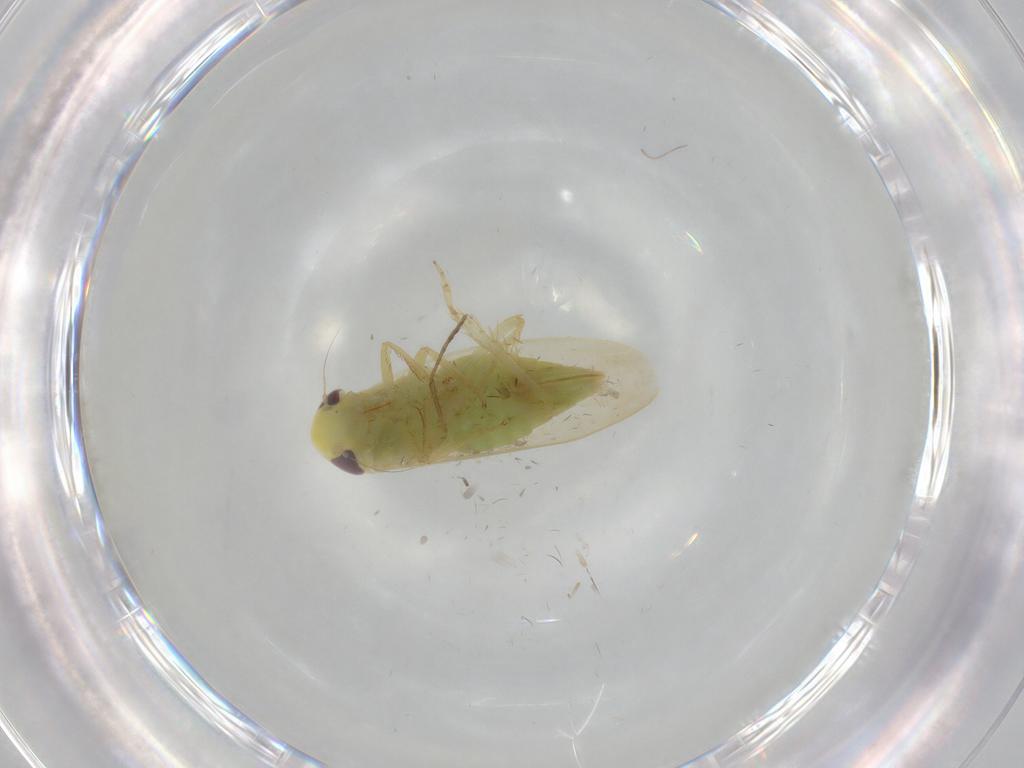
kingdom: Animalia
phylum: Arthropoda
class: Insecta
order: Hemiptera
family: Cicadellidae
